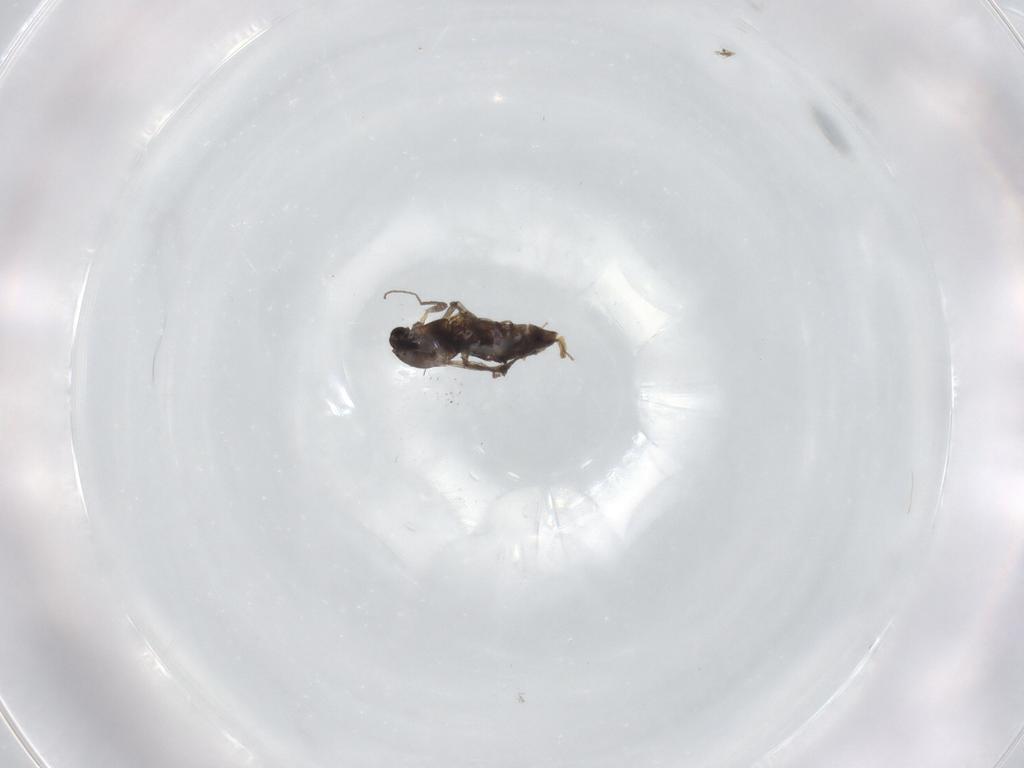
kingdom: Animalia
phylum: Arthropoda
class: Insecta
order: Diptera
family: Chironomidae
